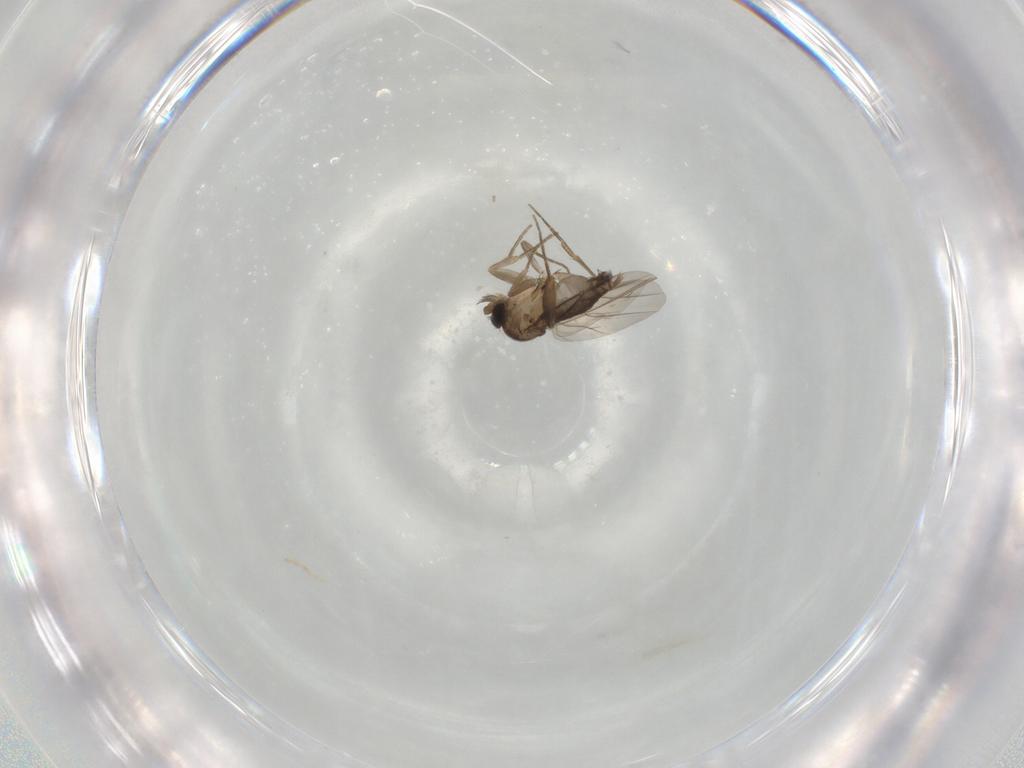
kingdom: Animalia
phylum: Arthropoda
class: Insecta
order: Diptera
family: Phoridae
